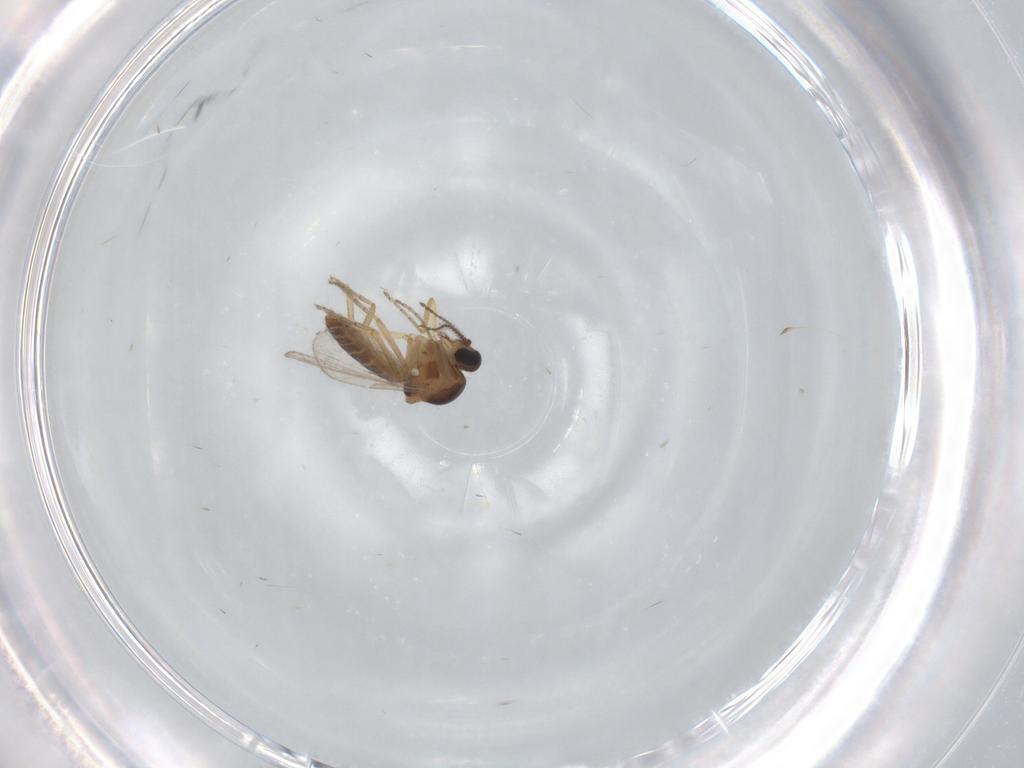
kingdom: Animalia
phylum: Arthropoda
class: Insecta
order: Diptera
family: Ceratopogonidae
